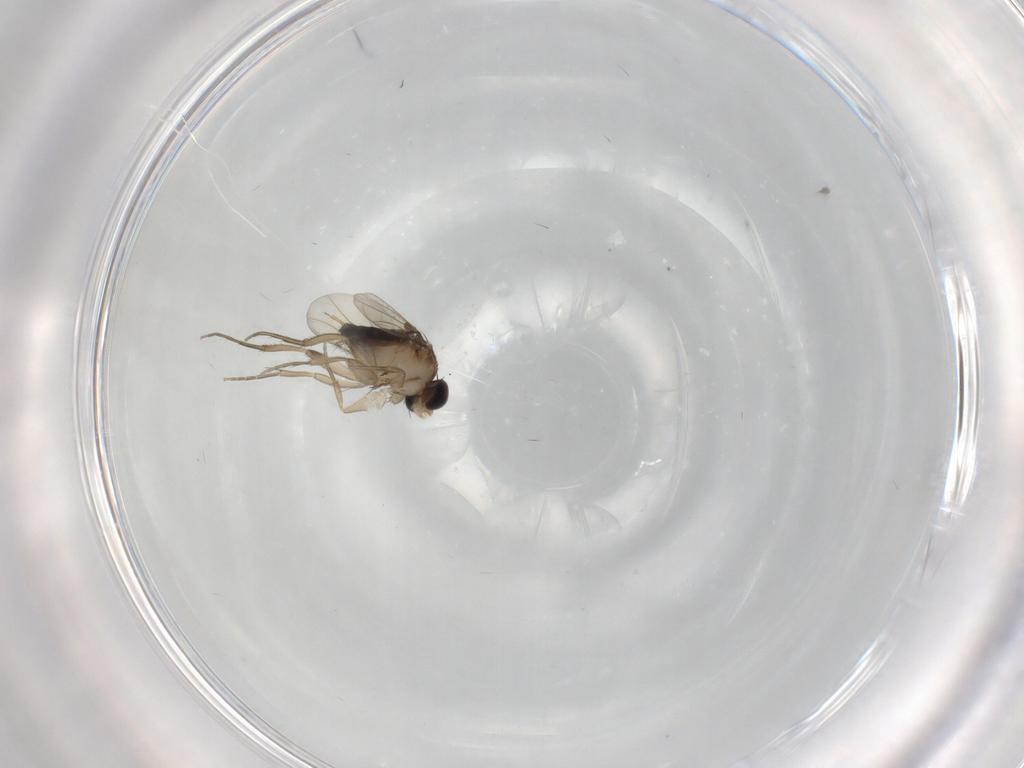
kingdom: Animalia
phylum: Arthropoda
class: Insecta
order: Diptera
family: Phoridae
